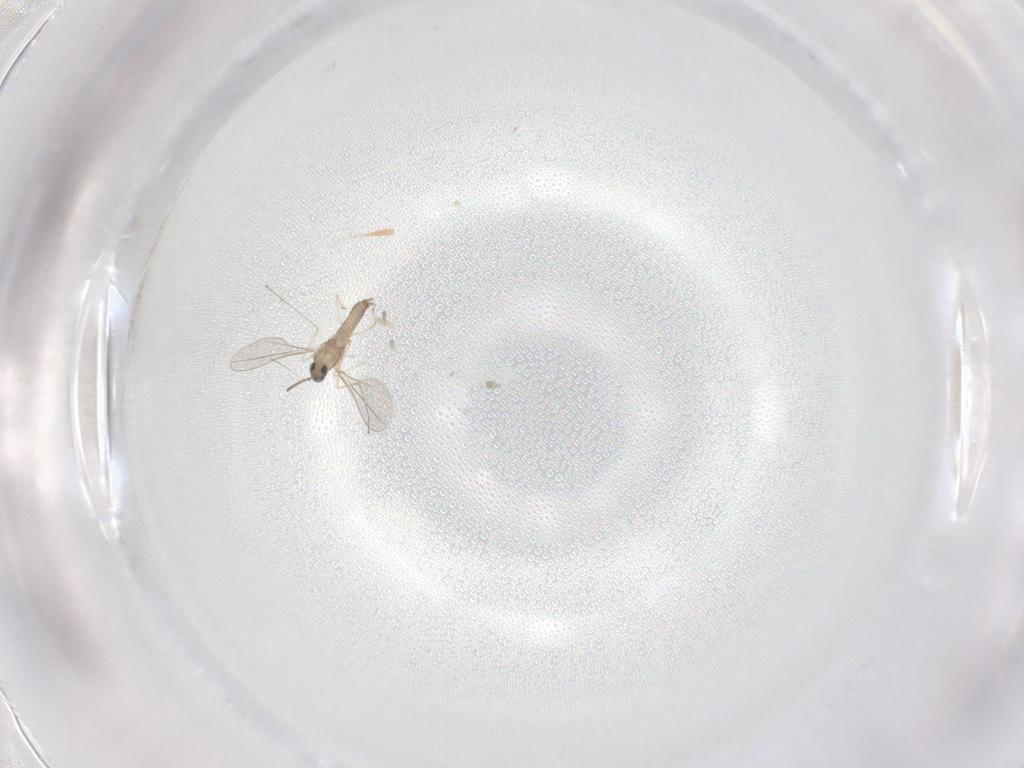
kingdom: Animalia
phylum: Arthropoda
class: Insecta
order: Diptera
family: Cecidomyiidae
